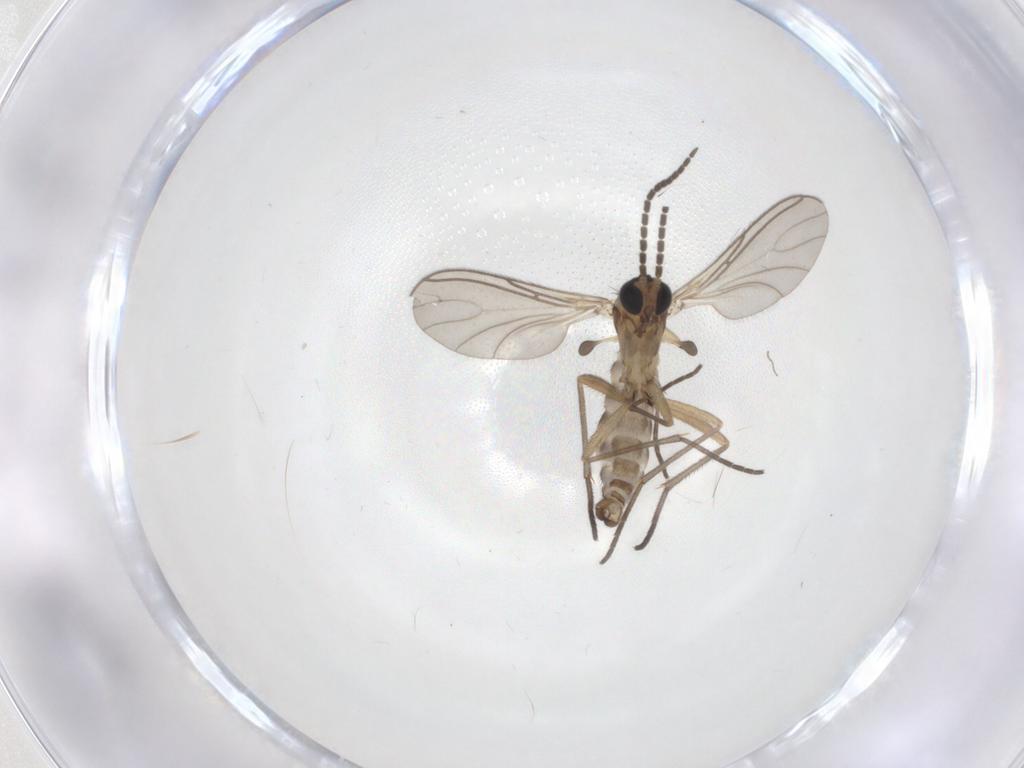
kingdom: Animalia
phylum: Arthropoda
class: Insecta
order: Diptera
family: Sciaridae
